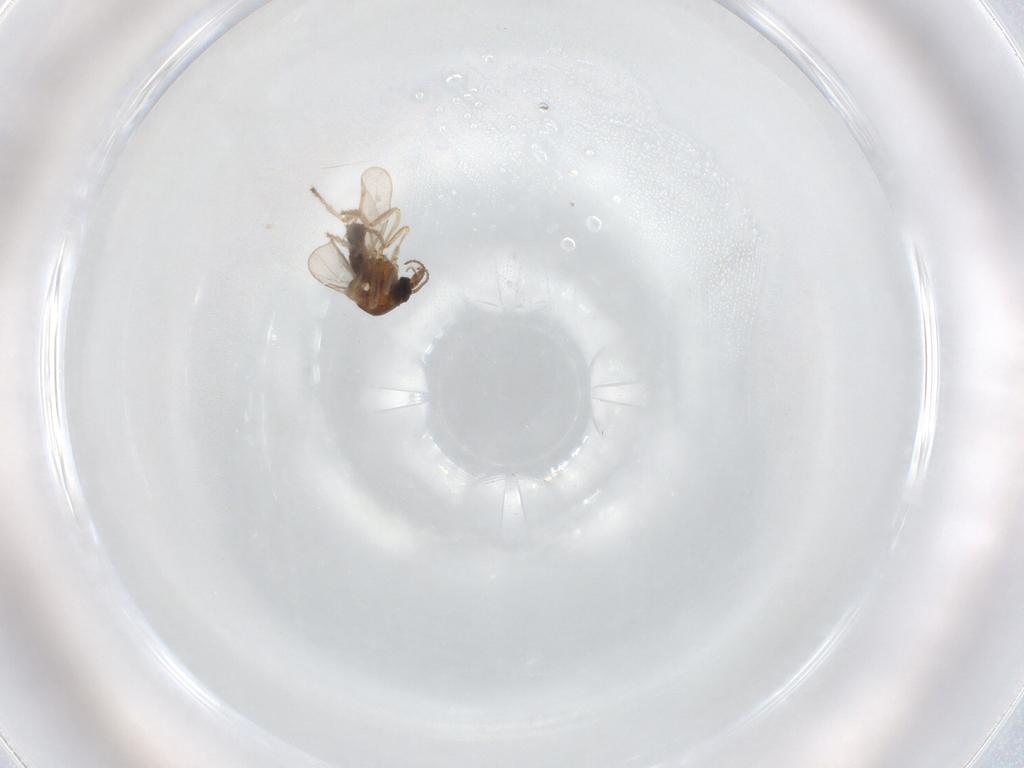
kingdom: Animalia
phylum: Arthropoda
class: Insecta
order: Diptera
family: Ceratopogonidae
